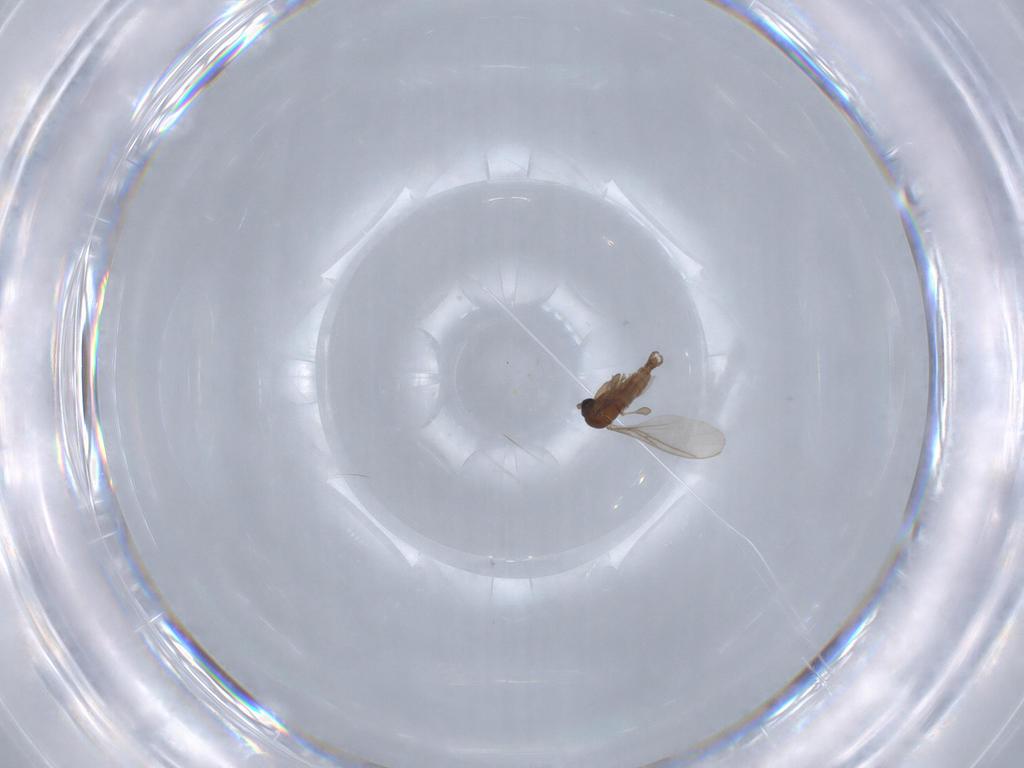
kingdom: Animalia
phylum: Arthropoda
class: Insecta
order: Diptera
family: Sciaridae
